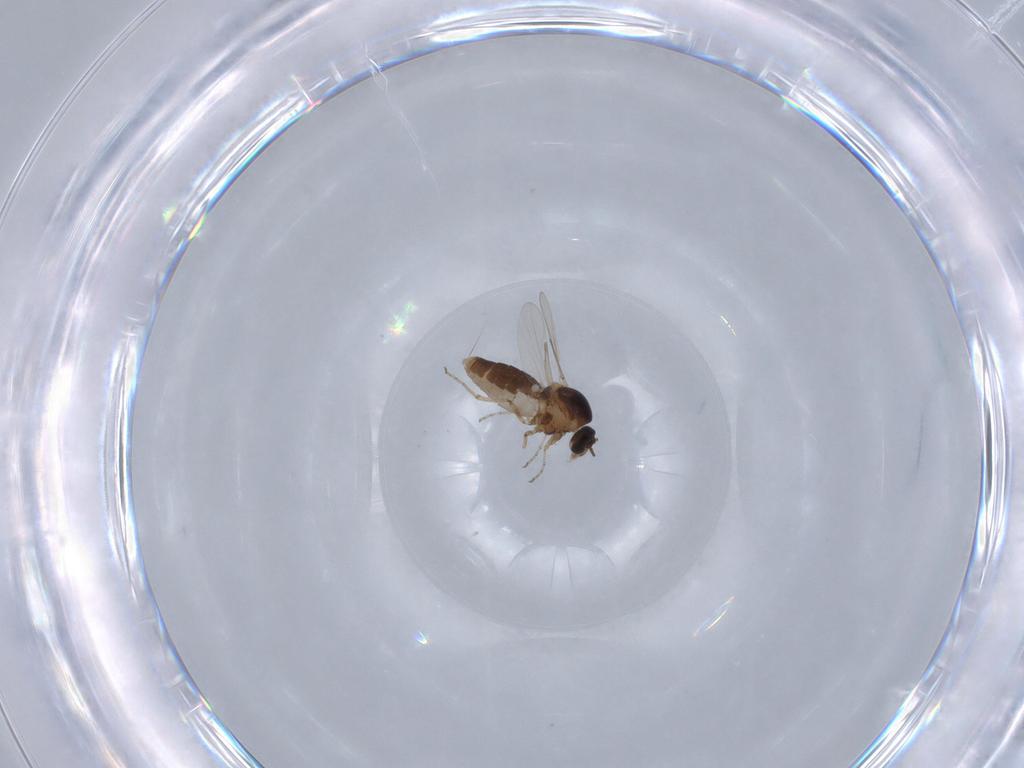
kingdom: Animalia
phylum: Arthropoda
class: Insecta
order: Diptera
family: Ceratopogonidae
